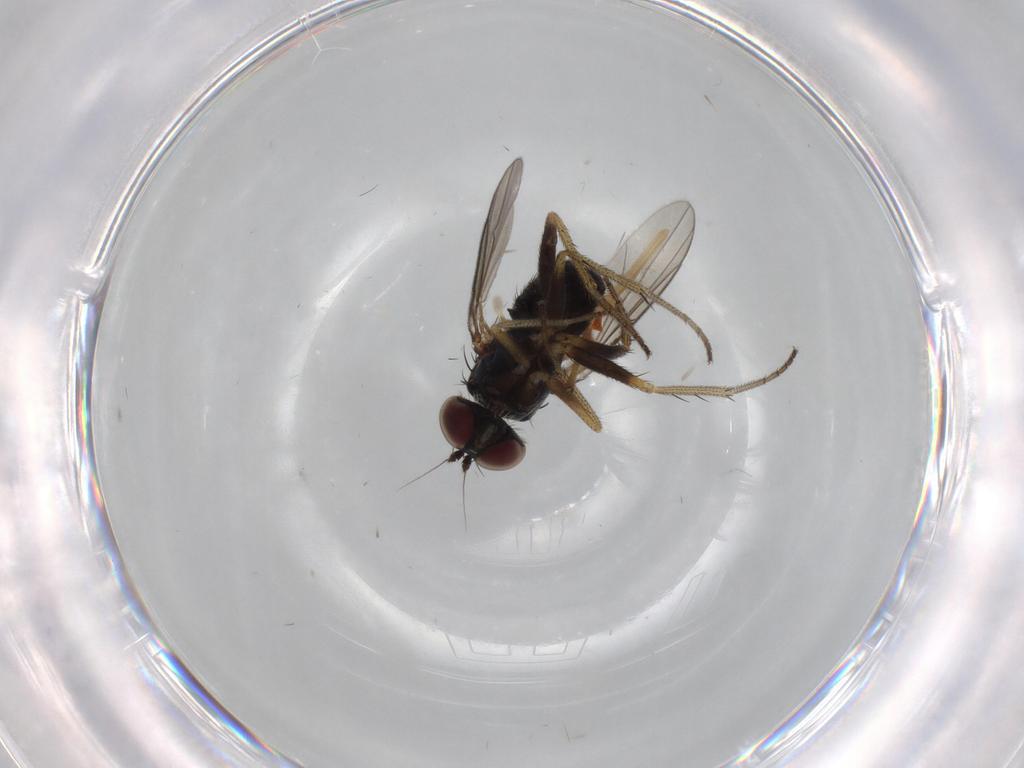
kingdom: Animalia
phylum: Arthropoda
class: Insecta
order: Diptera
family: Dolichopodidae
